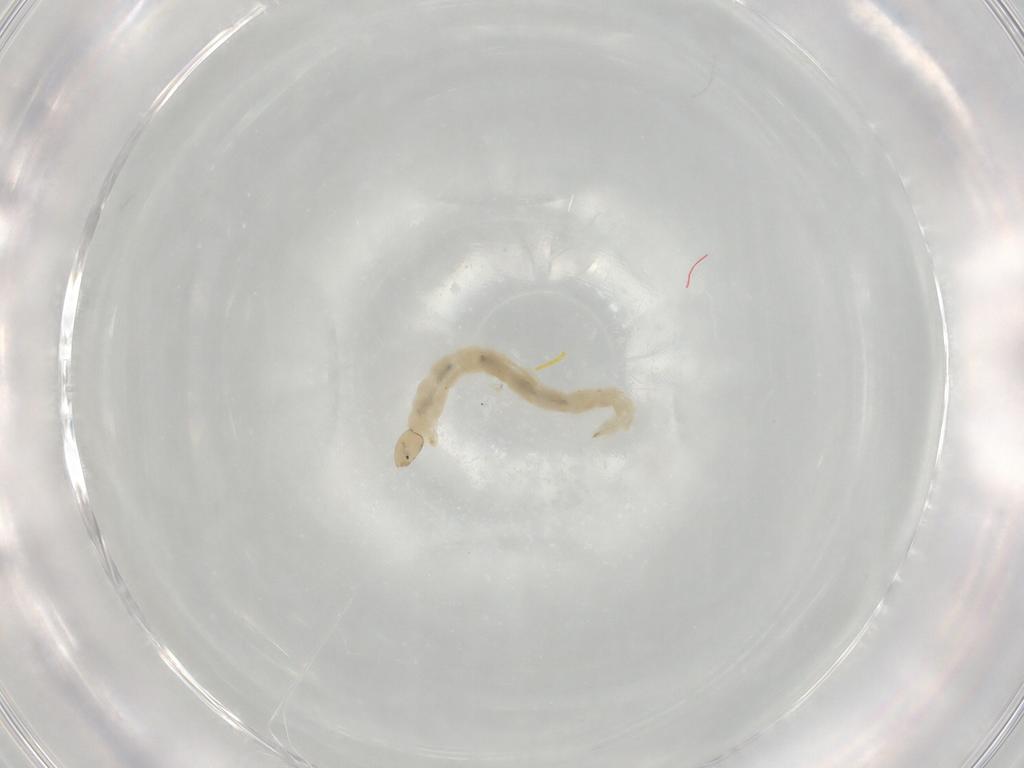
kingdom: Animalia
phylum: Arthropoda
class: Insecta
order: Diptera
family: Chironomidae
